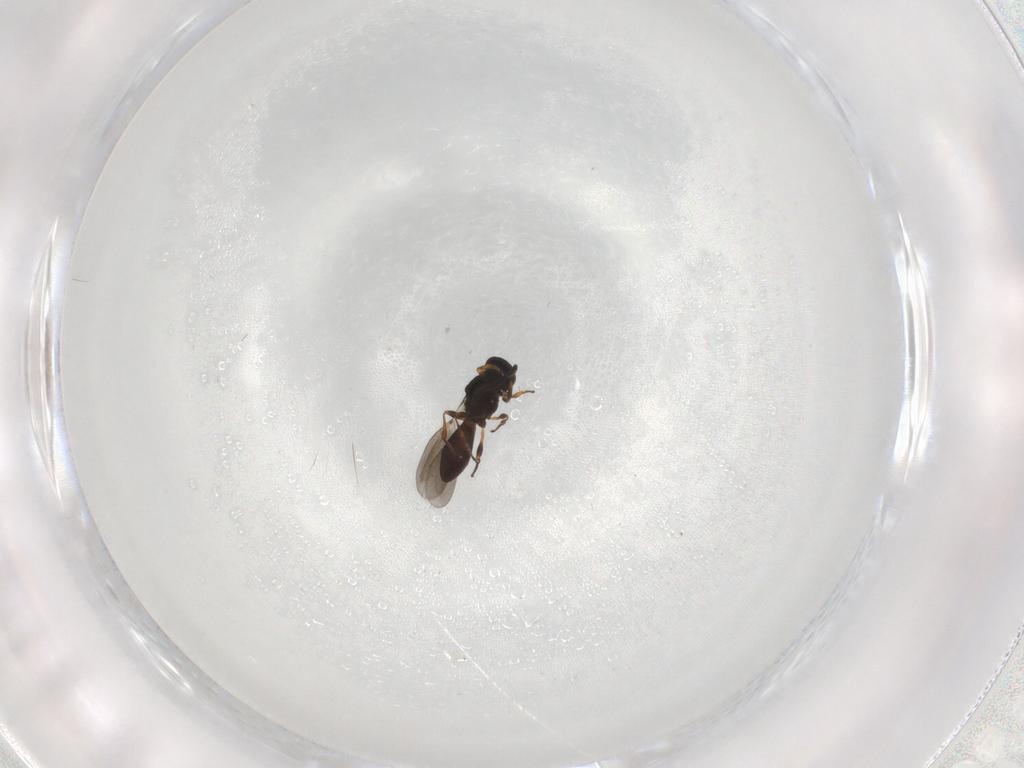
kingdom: Animalia
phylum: Arthropoda
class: Insecta
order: Hymenoptera
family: Platygastridae
